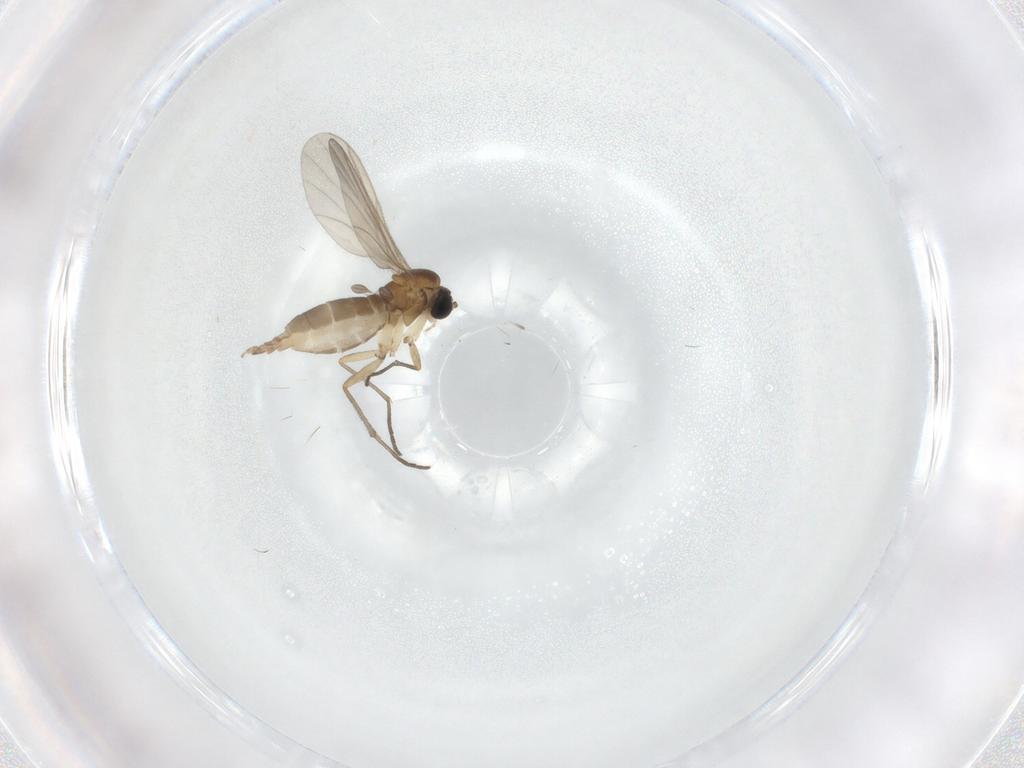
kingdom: Animalia
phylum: Arthropoda
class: Insecta
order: Diptera
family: Sciaridae
